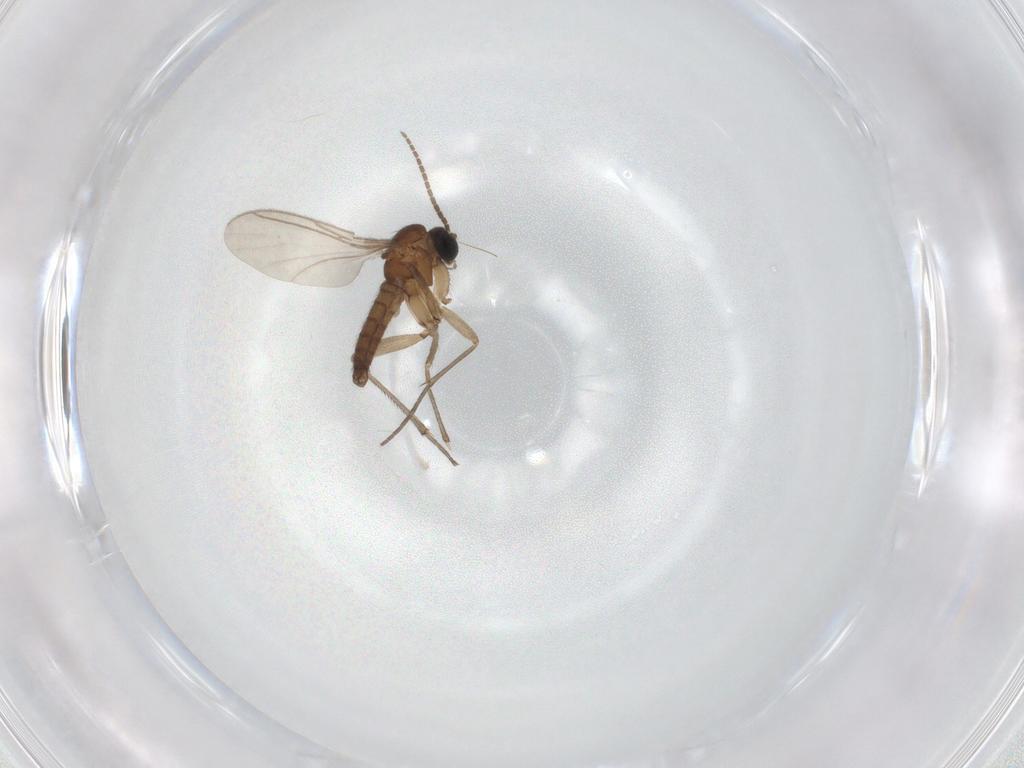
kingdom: Animalia
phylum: Arthropoda
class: Insecta
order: Diptera
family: Sciaridae
